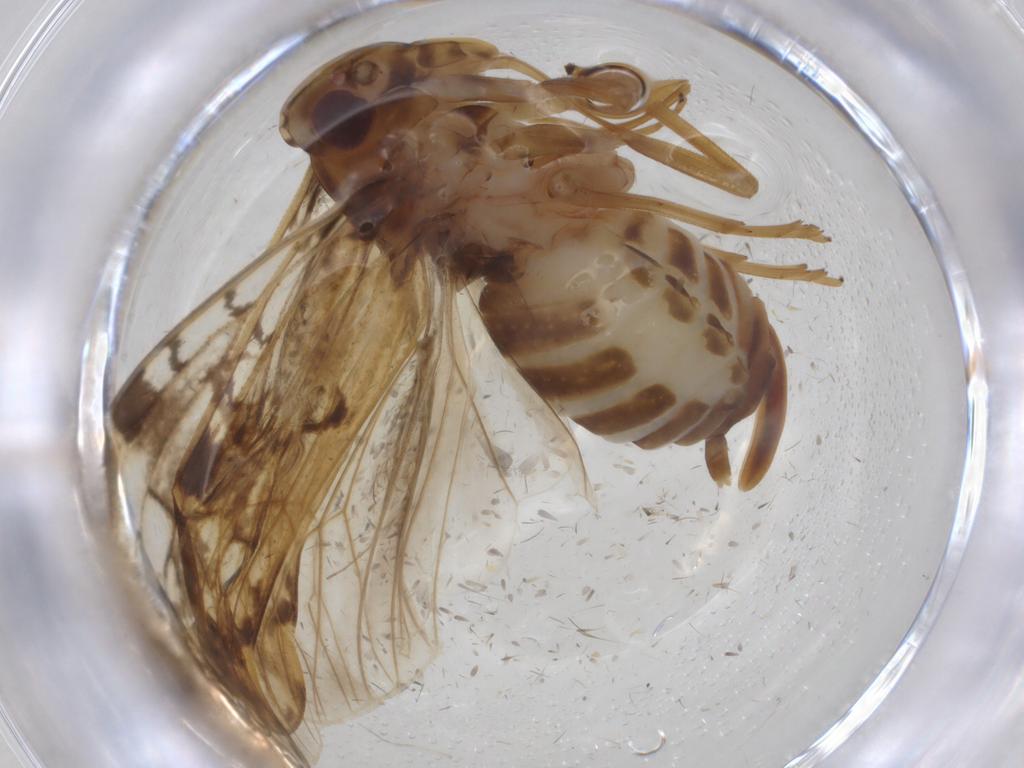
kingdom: Animalia
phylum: Arthropoda
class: Insecta
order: Hemiptera
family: Cixiidae
